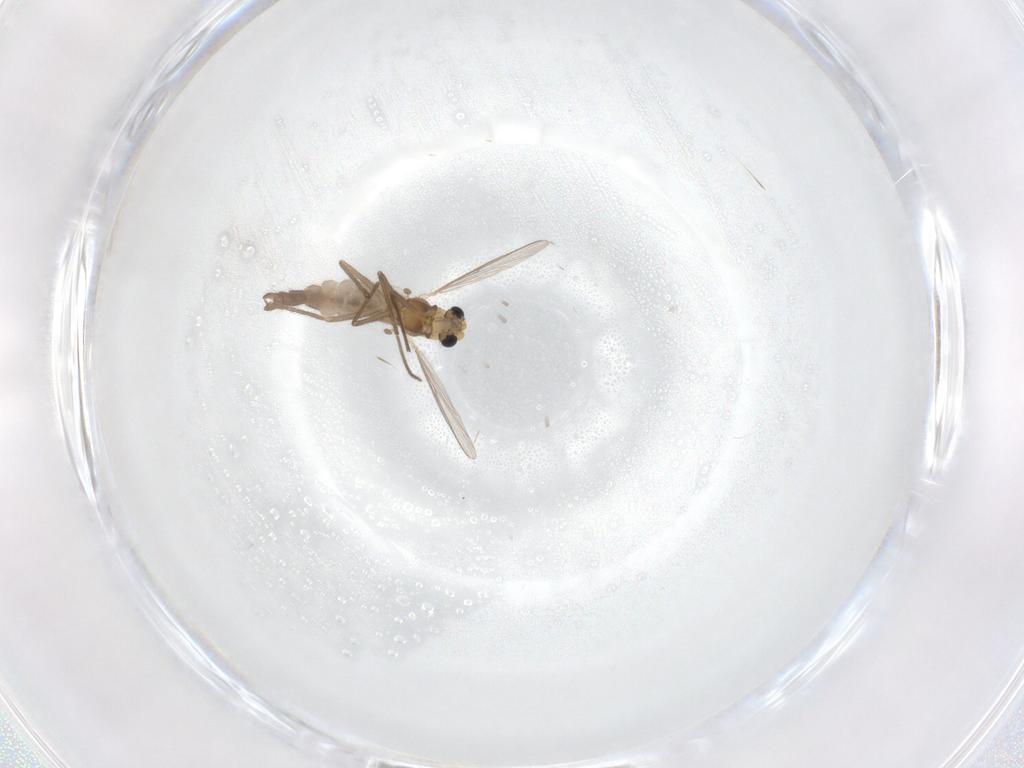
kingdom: Animalia
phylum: Arthropoda
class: Insecta
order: Diptera
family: Chironomidae
